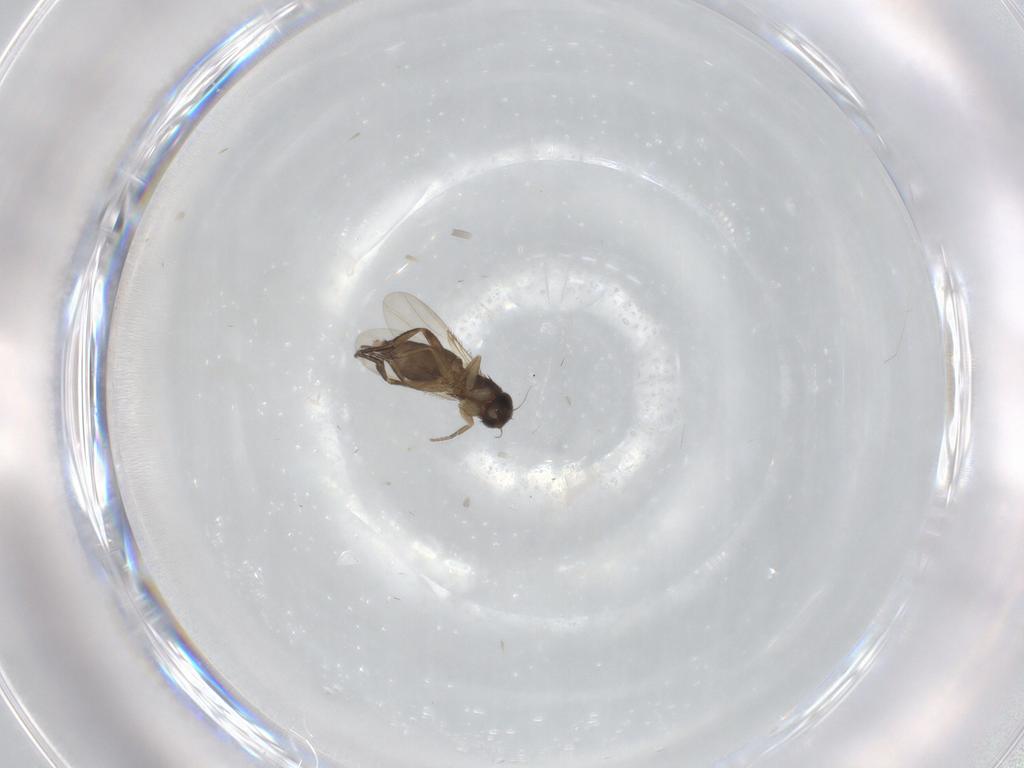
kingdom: Animalia
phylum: Arthropoda
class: Insecta
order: Diptera
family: Phoridae
